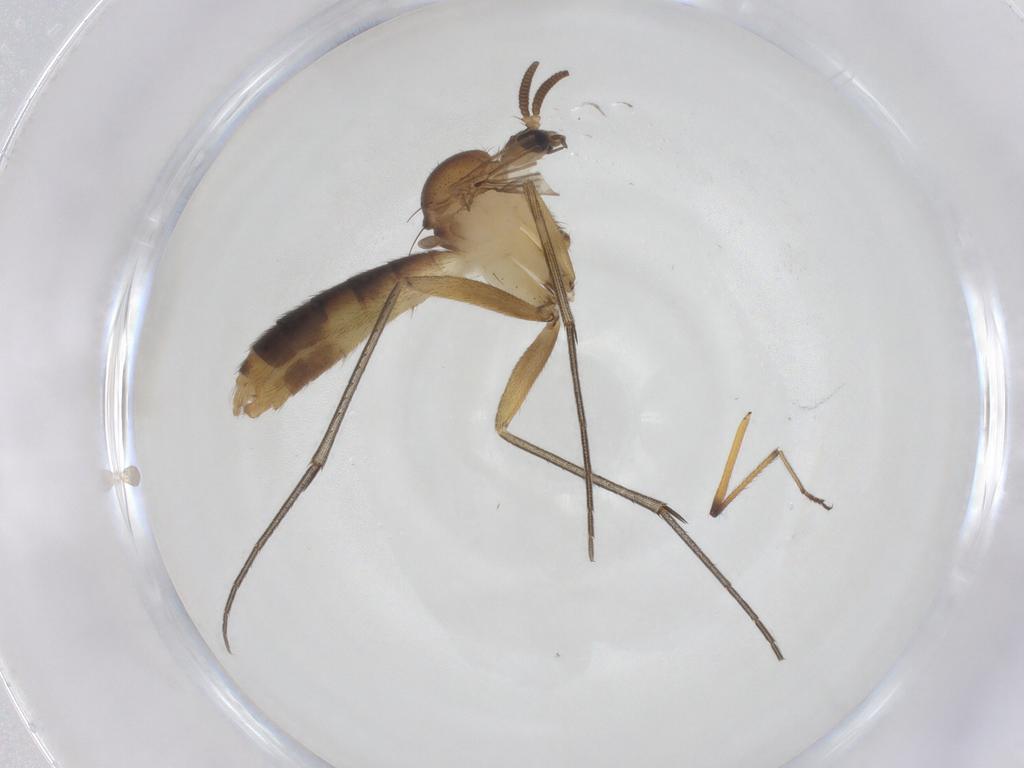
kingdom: Animalia
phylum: Arthropoda
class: Insecta
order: Diptera
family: Mycetophilidae
